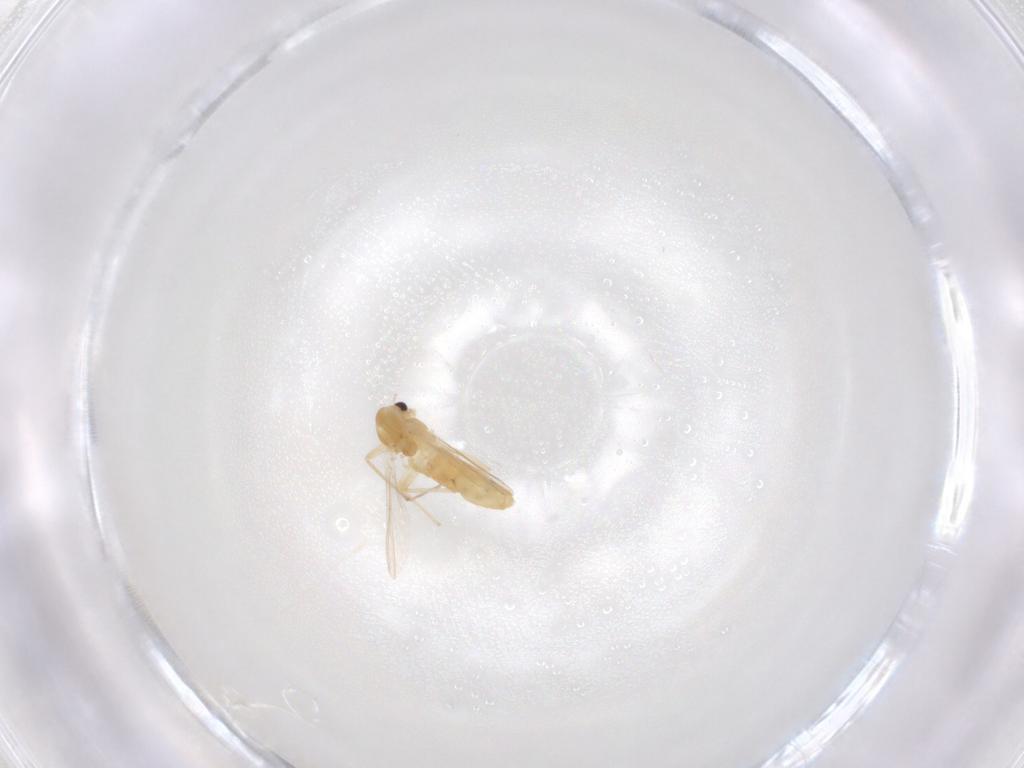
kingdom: Animalia
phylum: Arthropoda
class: Insecta
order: Diptera
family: Chironomidae
